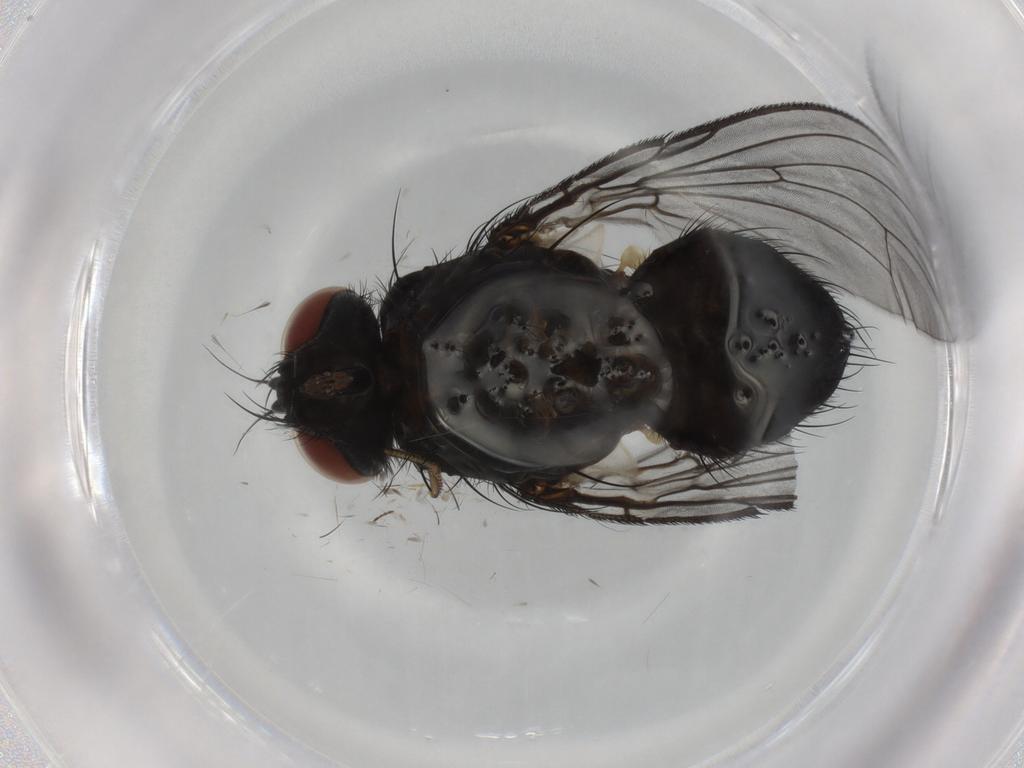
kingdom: Animalia
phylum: Arthropoda
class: Insecta
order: Diptera
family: Muscidae
